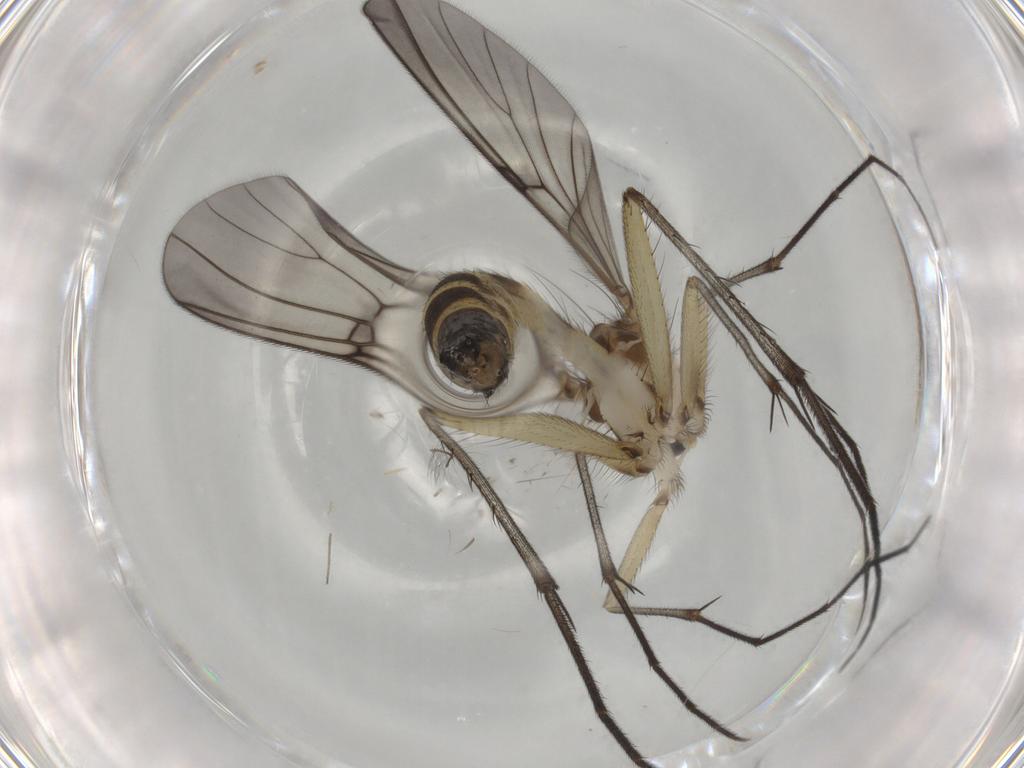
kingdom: Animalia
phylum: Arthropoda
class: Insecta
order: Diptera
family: Mycetophilidae
